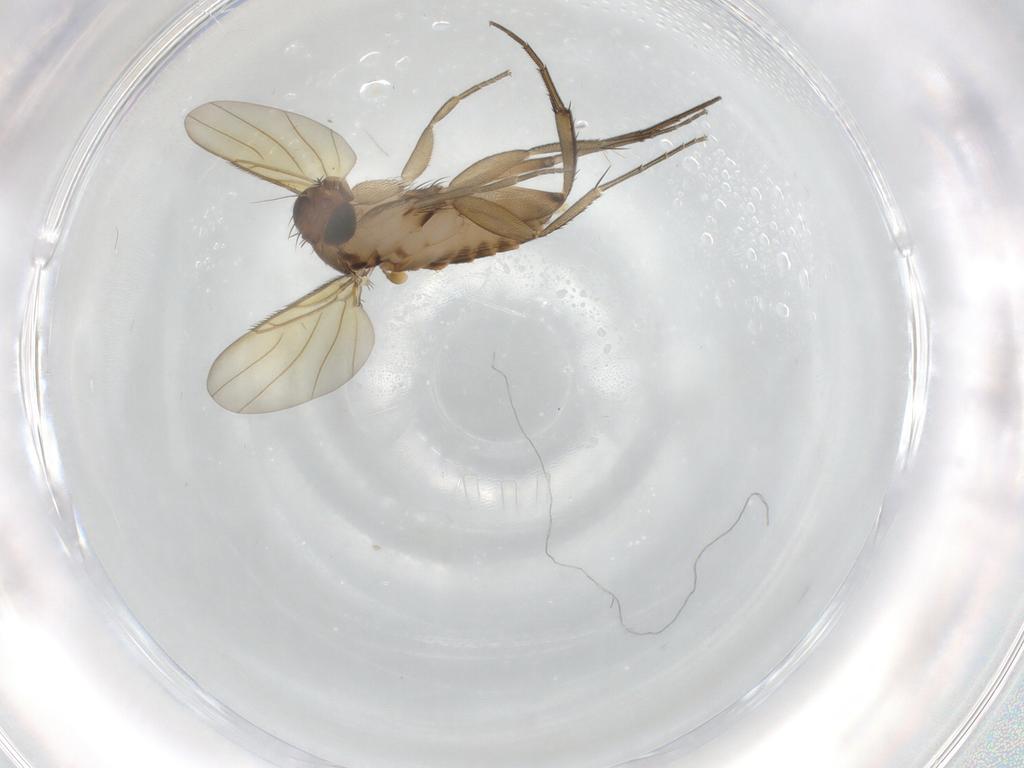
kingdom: Animalia
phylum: Arthropoda
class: Insecta
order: Diptera
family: Phoridae
